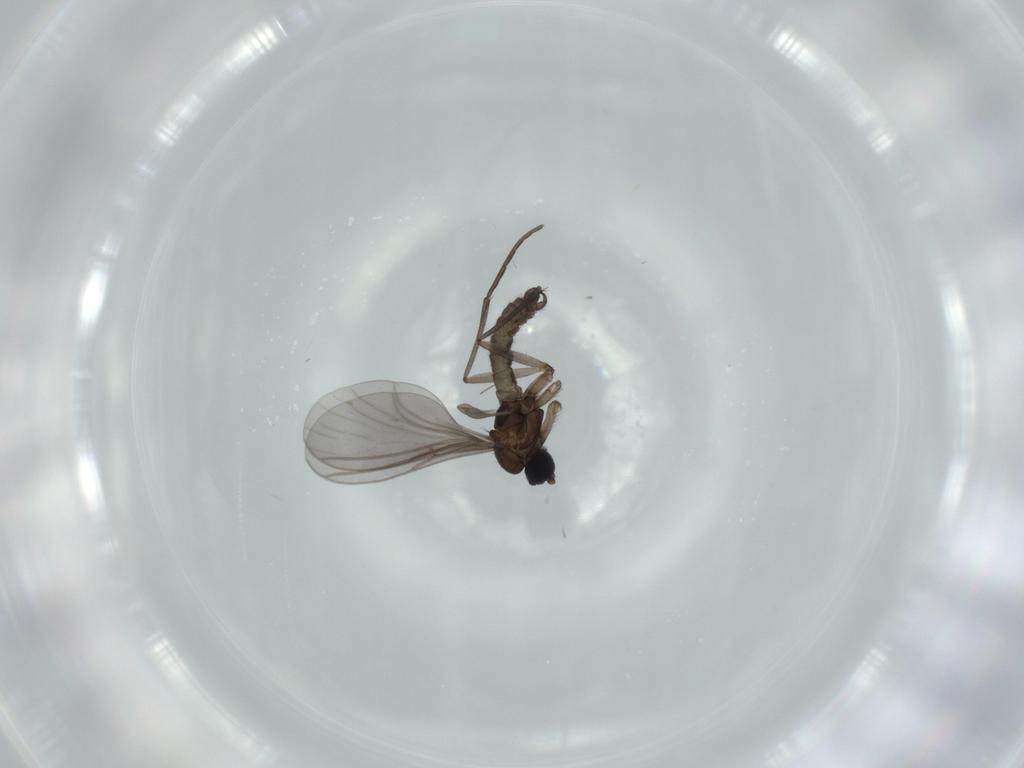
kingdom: Animalia
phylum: Arthropoda
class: Insecta
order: Diptera
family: Sciaridae
